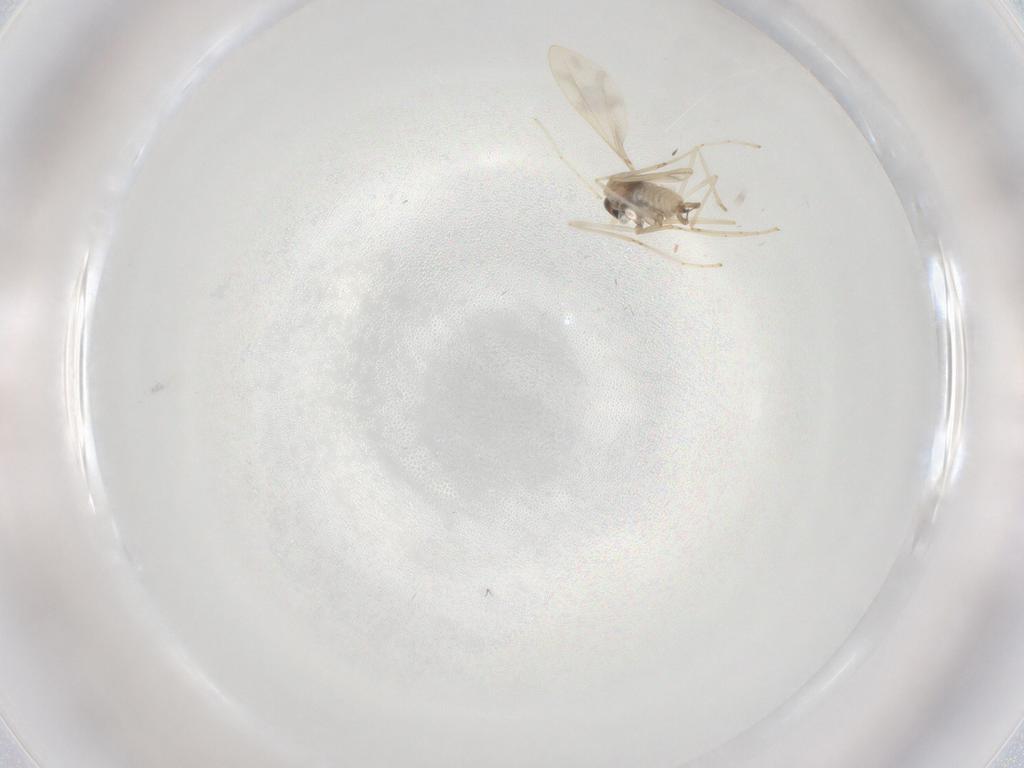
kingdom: Animalia
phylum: Arthropoda
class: Insecta
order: Diptera
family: Cecidomyiidae
